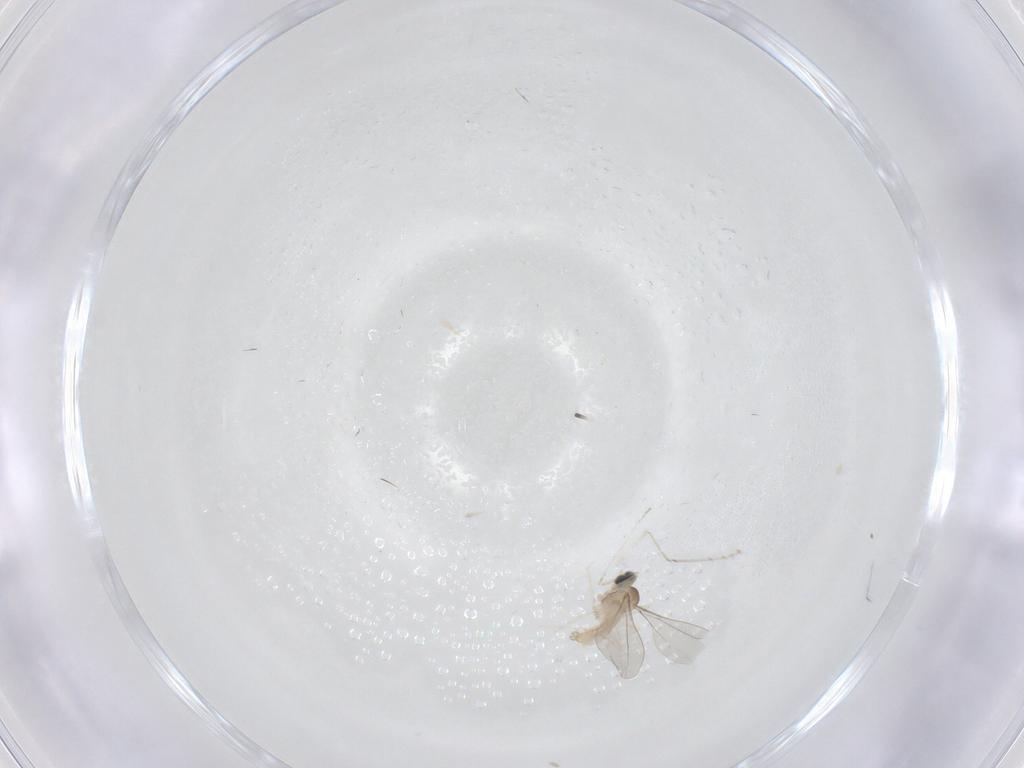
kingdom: Animalia
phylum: Arthropoda
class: Insecta
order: Diptera
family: Cecidomyiidae
